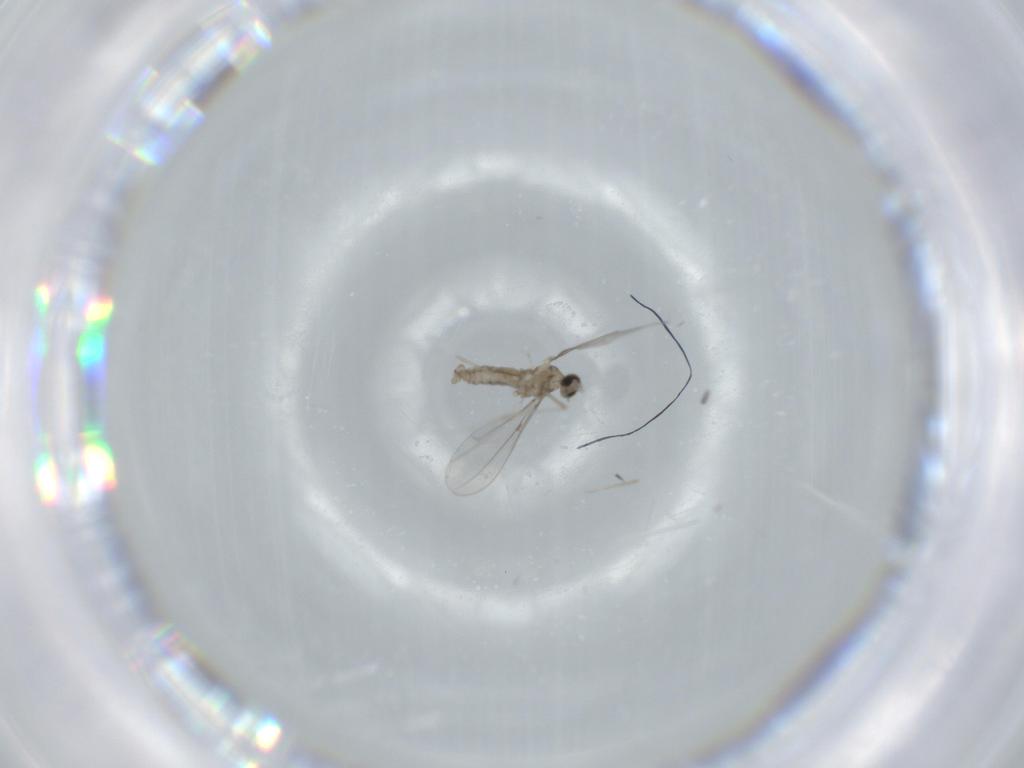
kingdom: Animalia
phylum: Arthropoda
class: Insecta
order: Diptera
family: Cecidomyiidae
